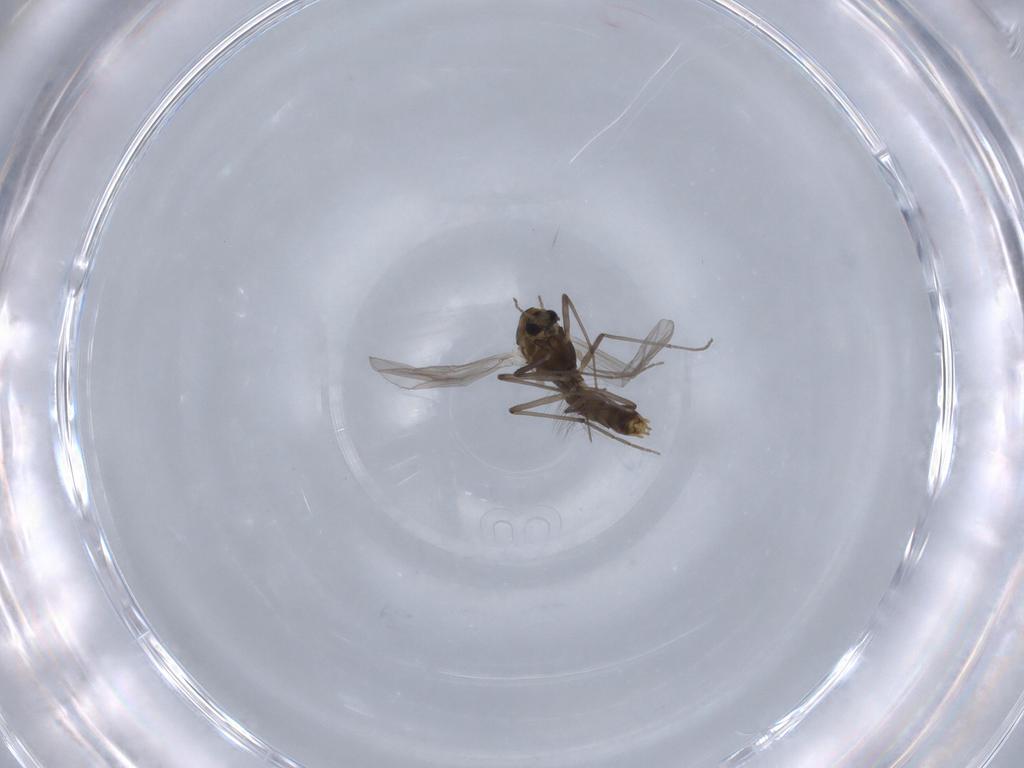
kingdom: Animalia
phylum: Arthropoda
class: Insecta
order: Diptera
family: Chironomidae
